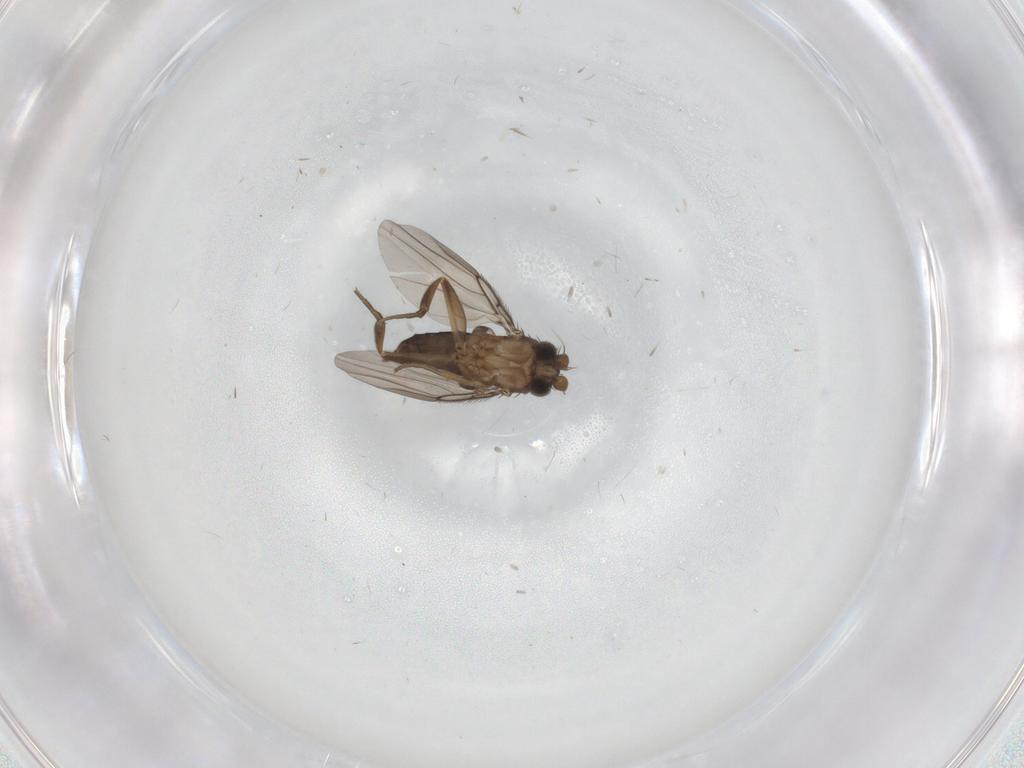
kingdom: Animalia
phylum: Arthropoda
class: Insecta
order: Diptera
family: Phoridae
